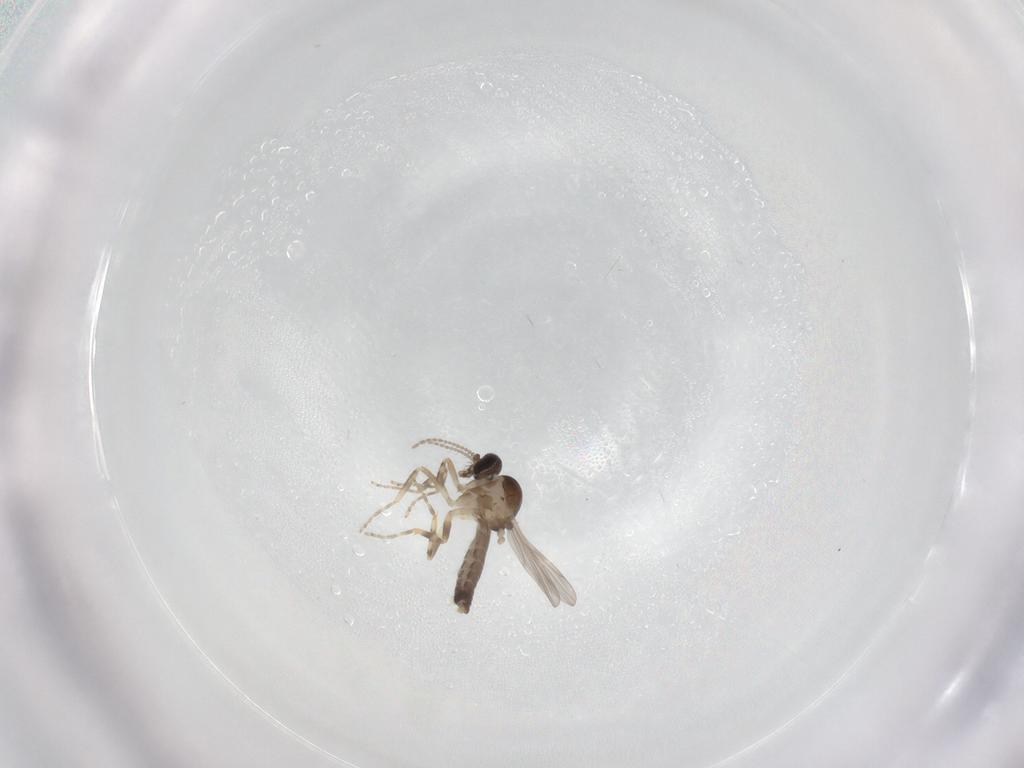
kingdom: Animalia
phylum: Arthropoda
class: Insecta
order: Diptera
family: Ceratopogonidae
